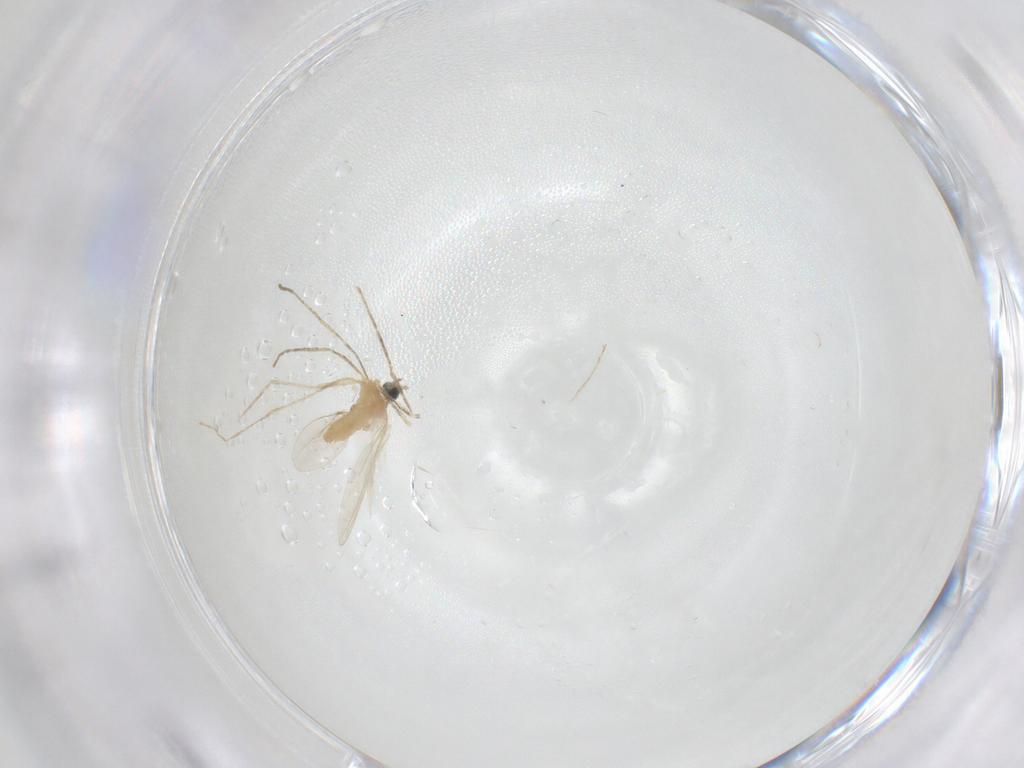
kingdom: Animalia
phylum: Arthropoda
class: Insecta
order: Diptera
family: Cecidomyiidae
